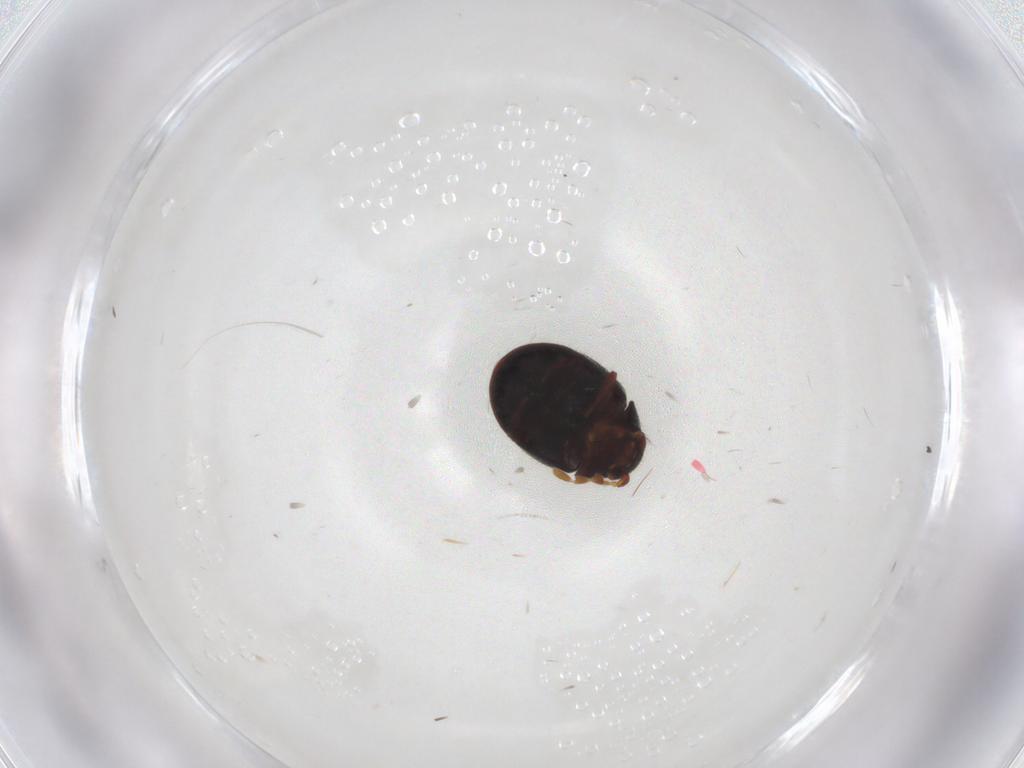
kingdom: Animalia
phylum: Arthropoda
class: Insecta
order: Coleoptera
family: Ptinidae
